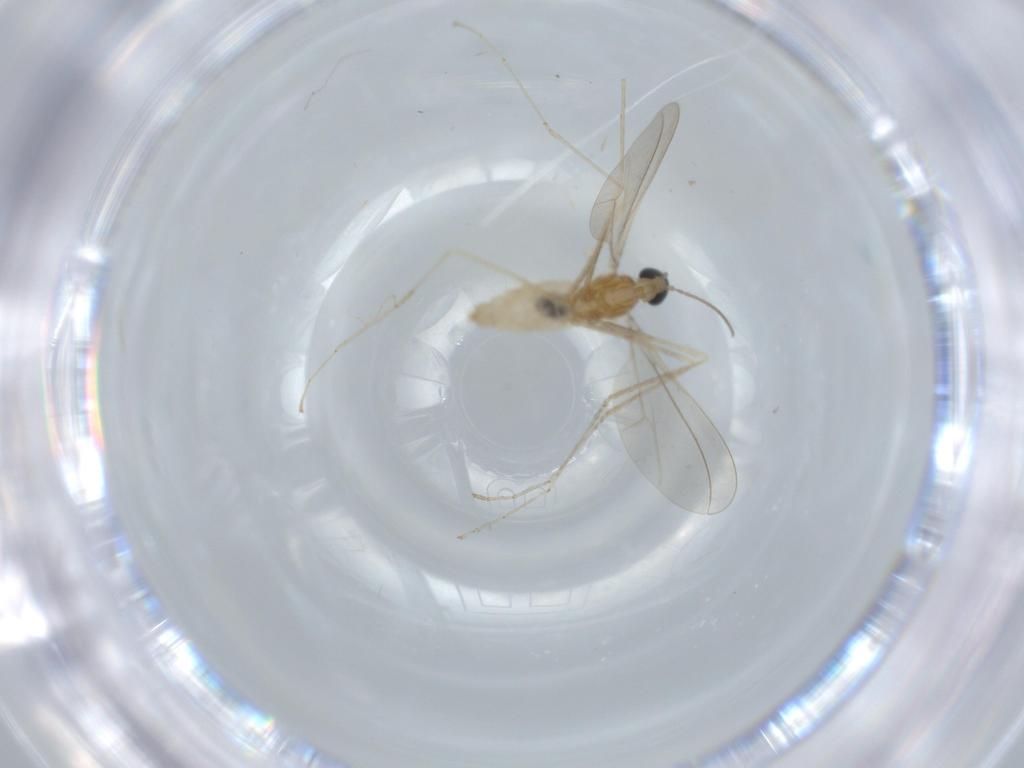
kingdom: Animalia
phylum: Arthropoda
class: Insecta
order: Diptera
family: Cecidomyiidae
